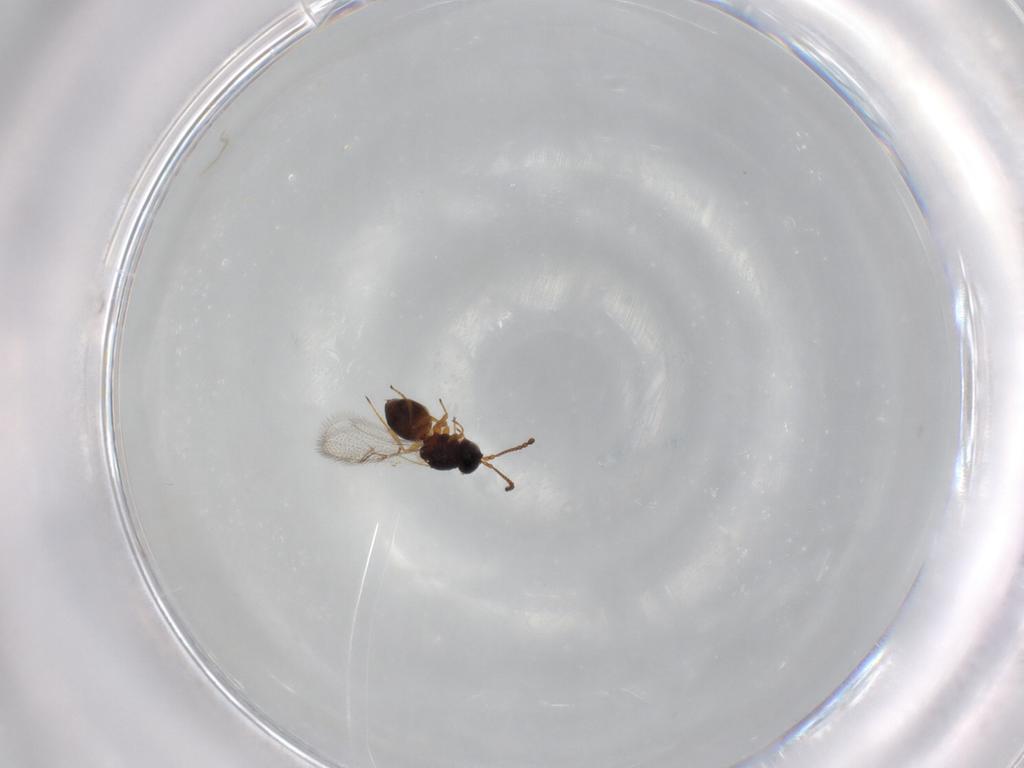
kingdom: Animalia
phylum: Arthropoda
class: Insecta
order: Hymenoptera
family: Figitidae
